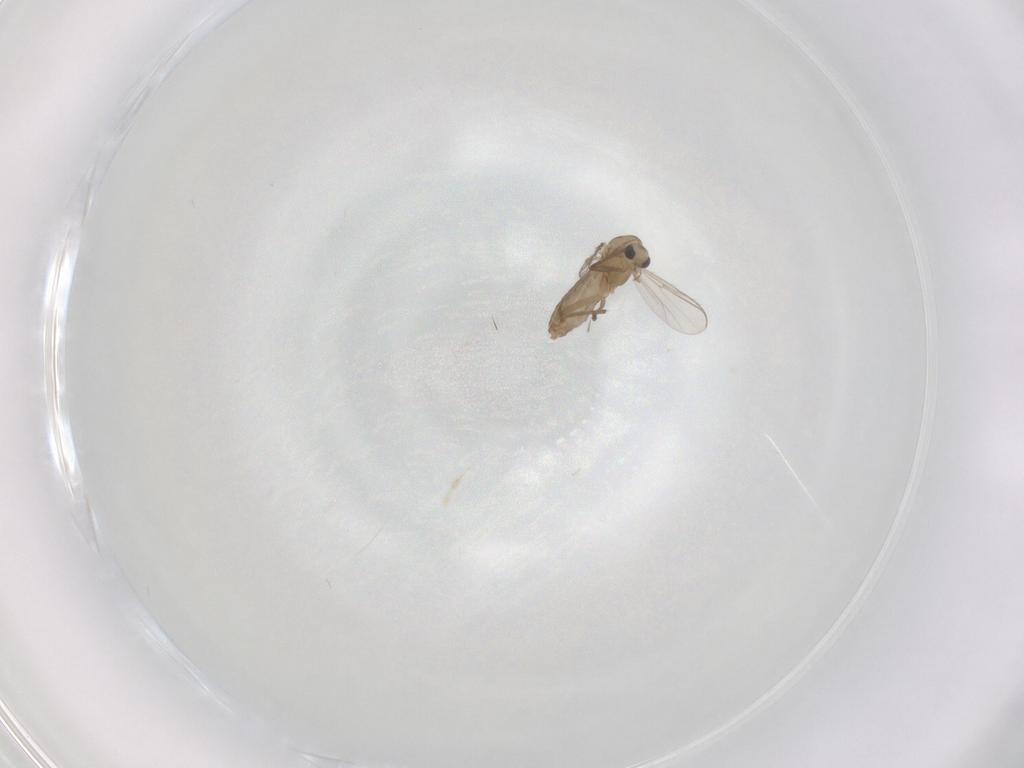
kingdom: Animalia
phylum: Arthropoda
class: Insecta
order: Diptera
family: Chironomidae
